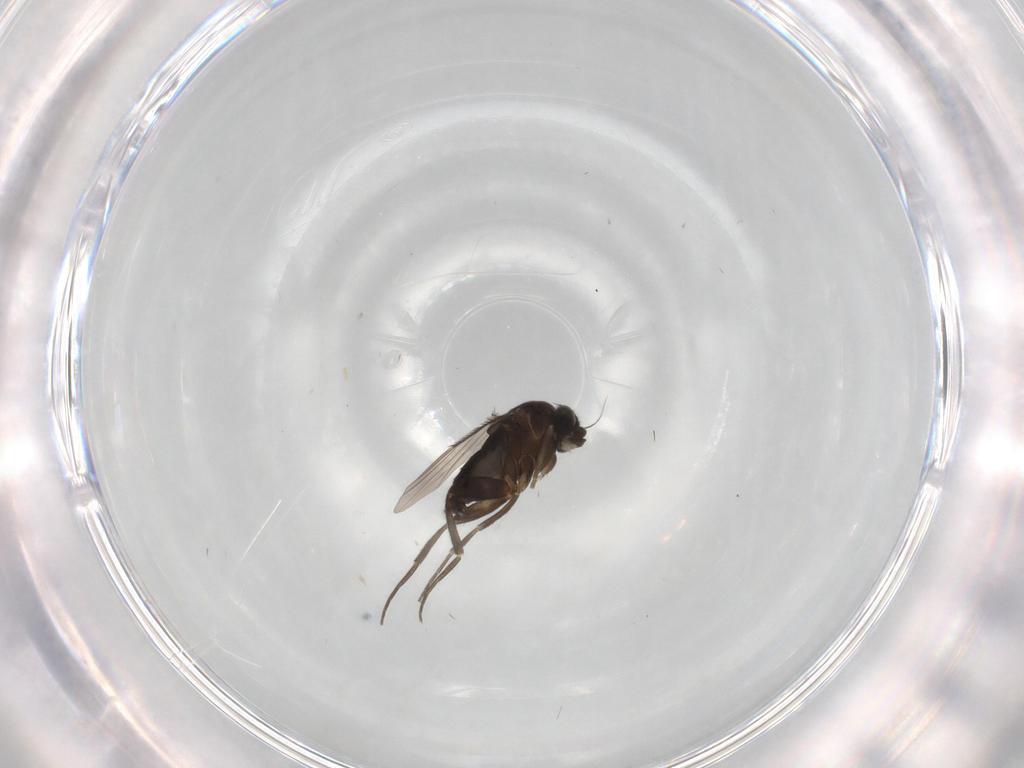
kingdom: Animalia
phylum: Arthropoda
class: Insecta
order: Diptera
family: Phoridae
